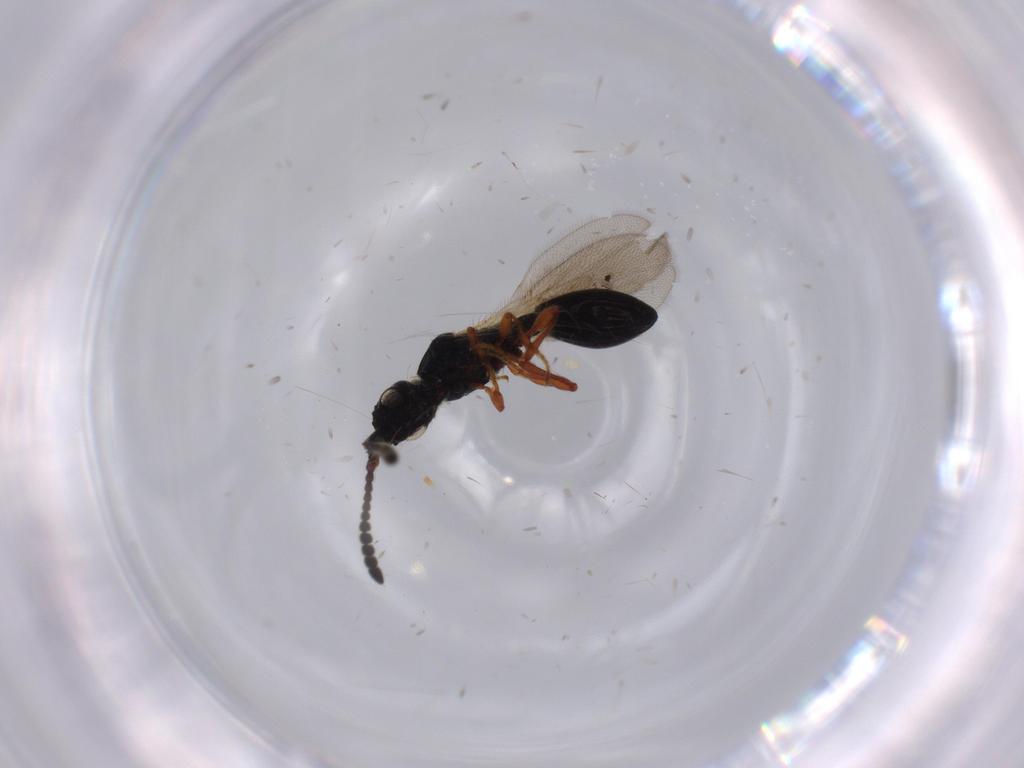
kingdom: Animalia
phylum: Arthropoda
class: Insecta
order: Hymenoptera
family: Diapriidae
